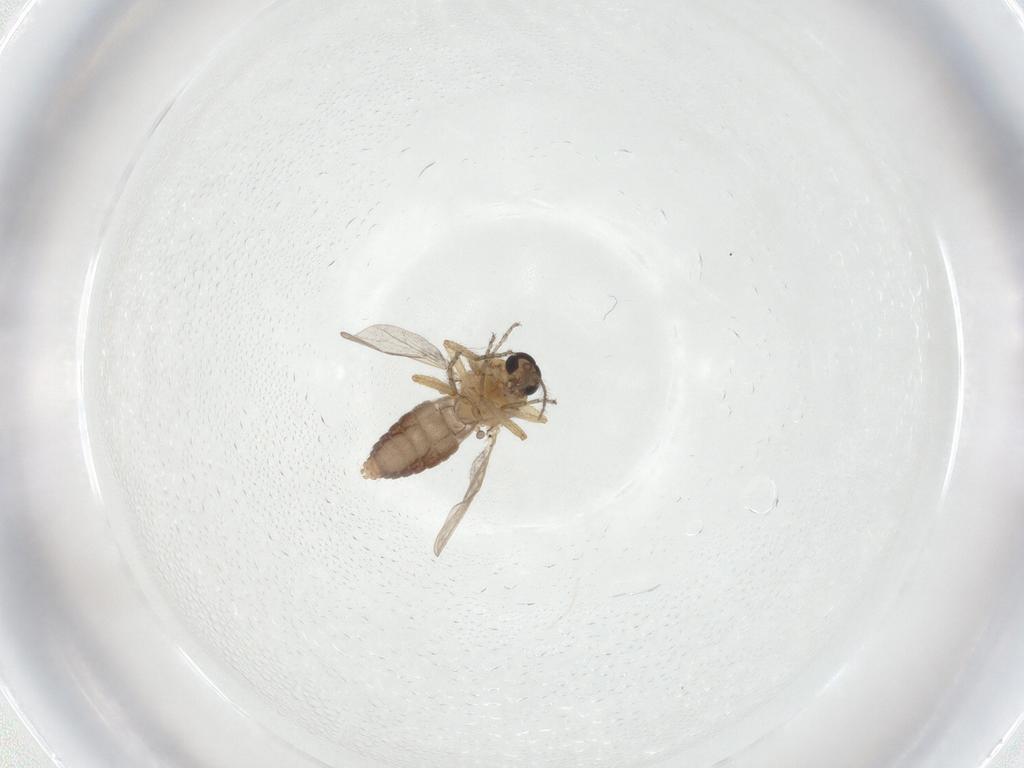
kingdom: Animalia
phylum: Arthropoda
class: Insecta
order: Diptera
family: Ceratopogonidae
